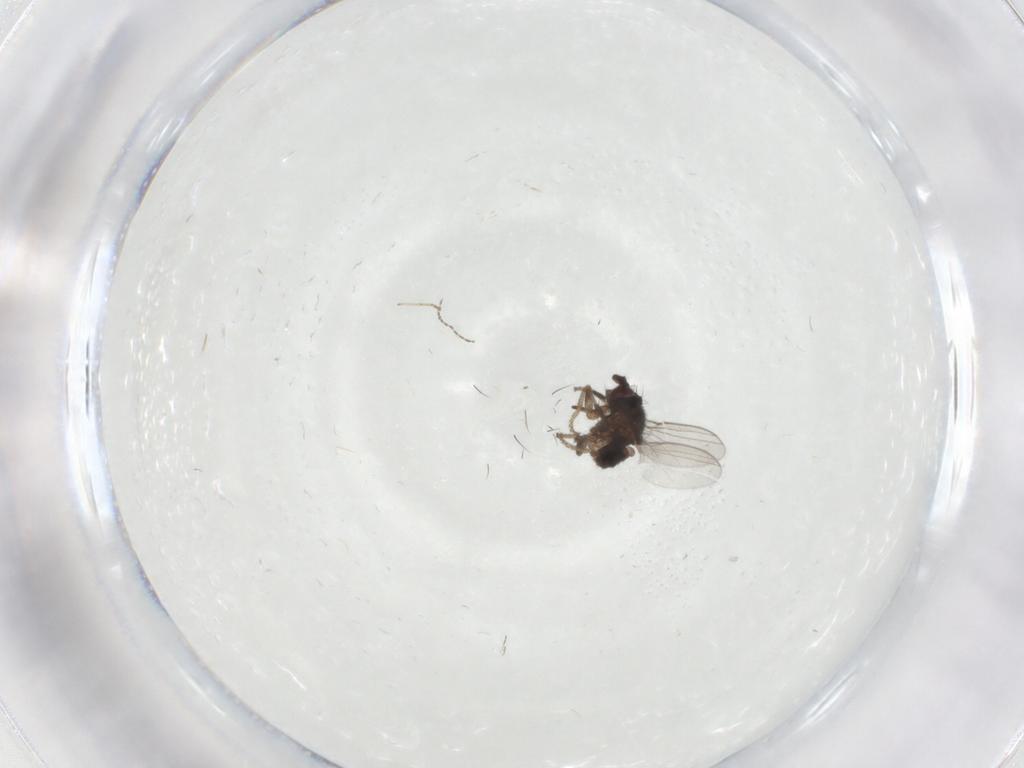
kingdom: Animalia
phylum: Arthropoda
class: Insecta
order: Diptera
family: Milichiidae
